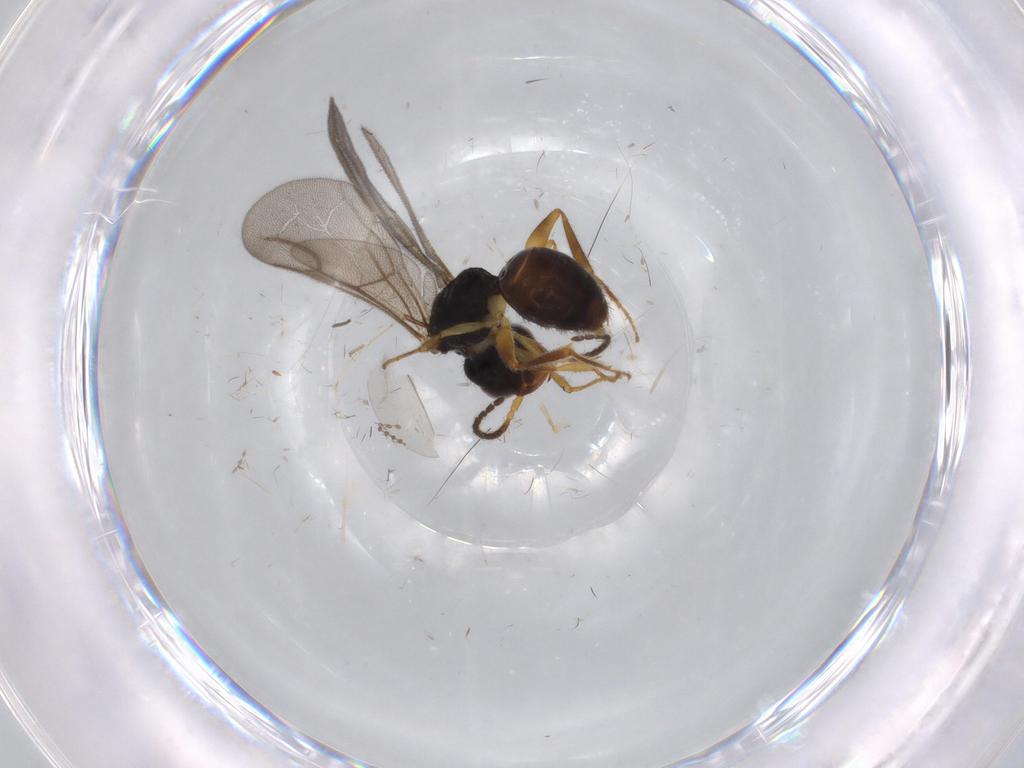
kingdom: Animalia
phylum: Arthropoda
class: Insecta
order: Hymenoptera
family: Bethylidae
